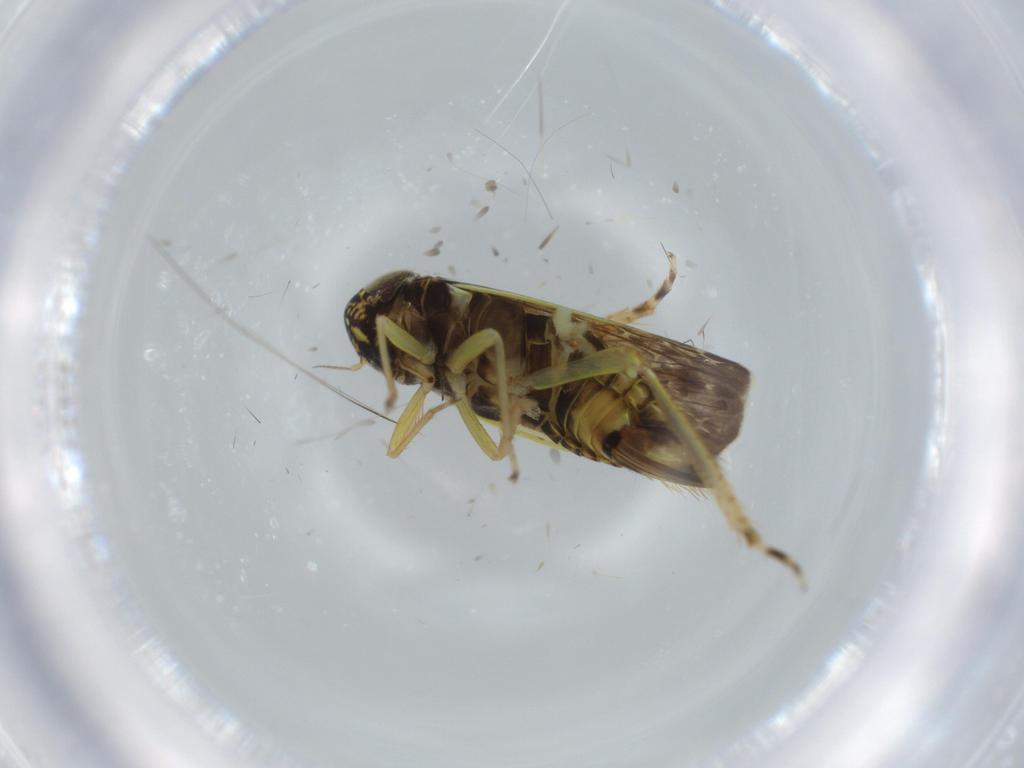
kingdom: Animalia
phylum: Arthropoda
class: Insecta
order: Hemiptera
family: Cicadellidae
